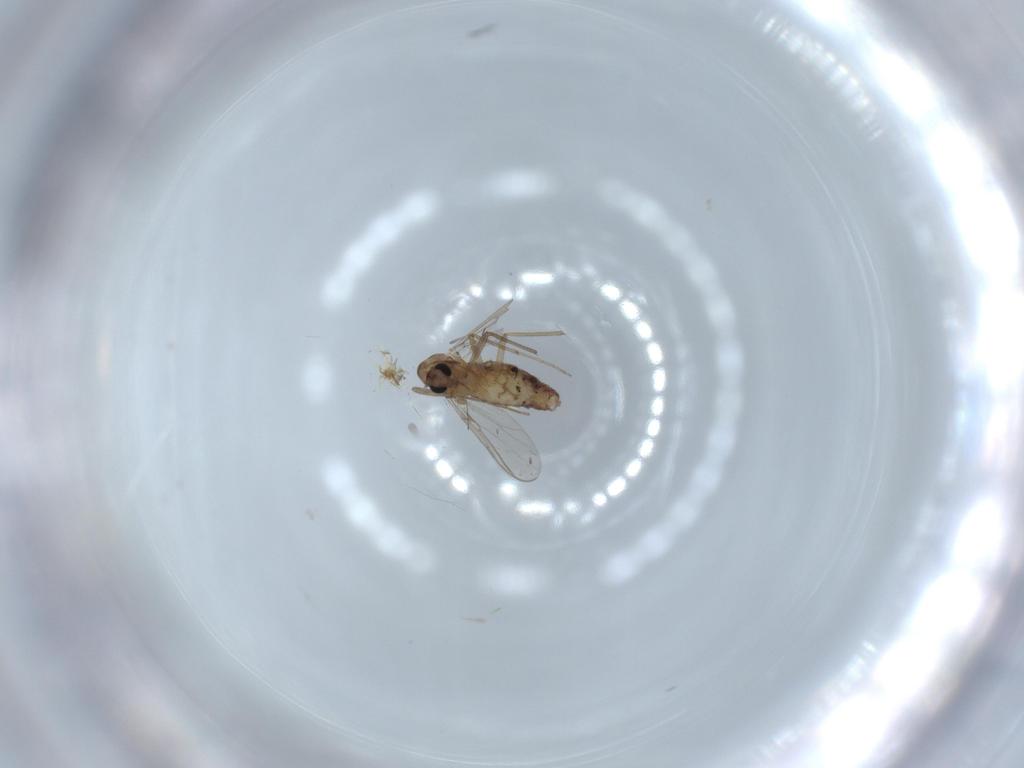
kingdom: Animalia
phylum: Arthropoda
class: Insecta
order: Diptera
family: Chironomidae
